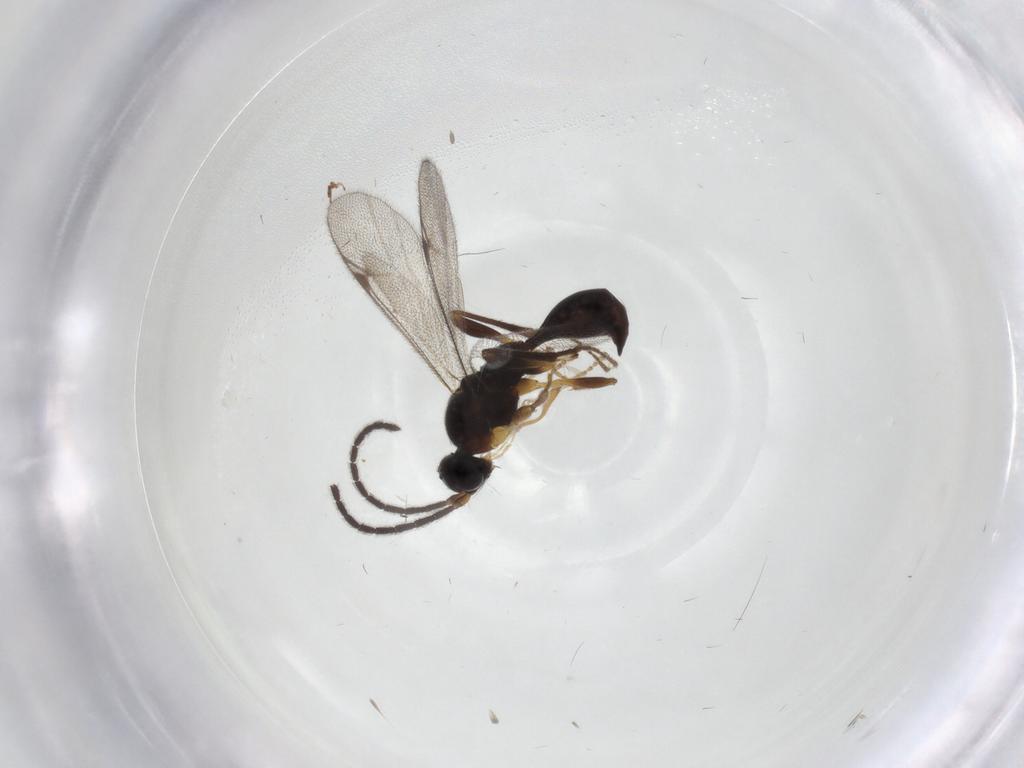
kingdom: Animalia
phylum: Arthropoda
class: Insecta
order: Hymenoptera
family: Proctotrupidae
